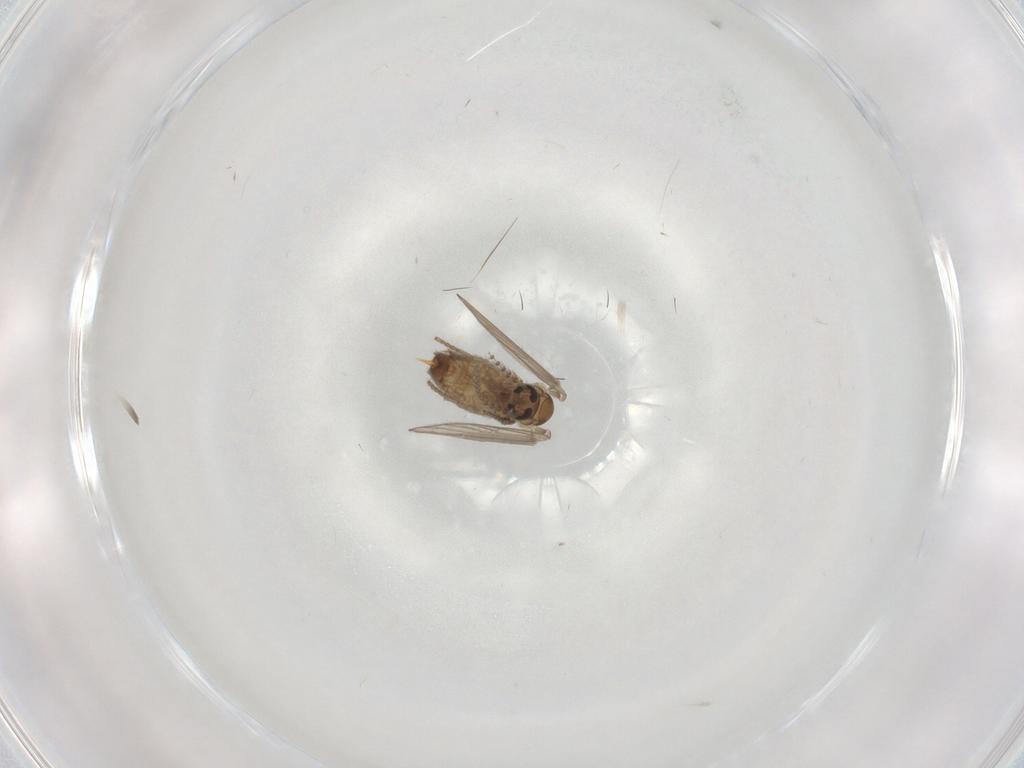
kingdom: Animalia
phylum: Arthropoda
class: Insecta
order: Diptera
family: Psychodidae
